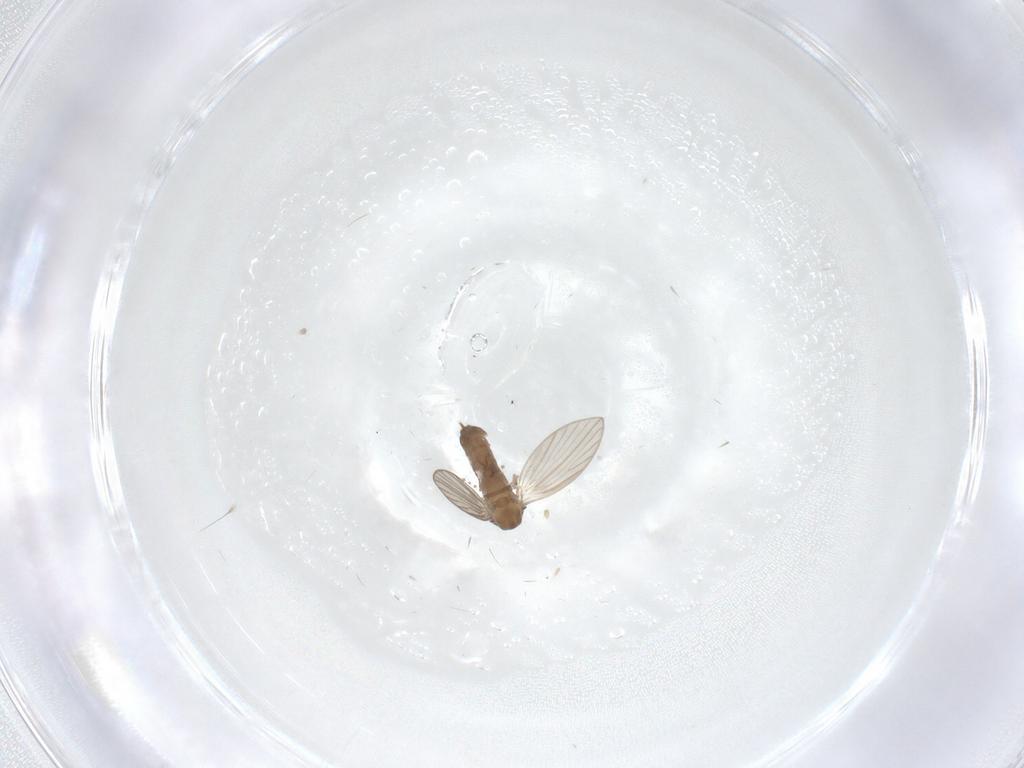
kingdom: Animalia
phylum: Arthropoda
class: Insecta
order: Diptera
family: Psychodidae
